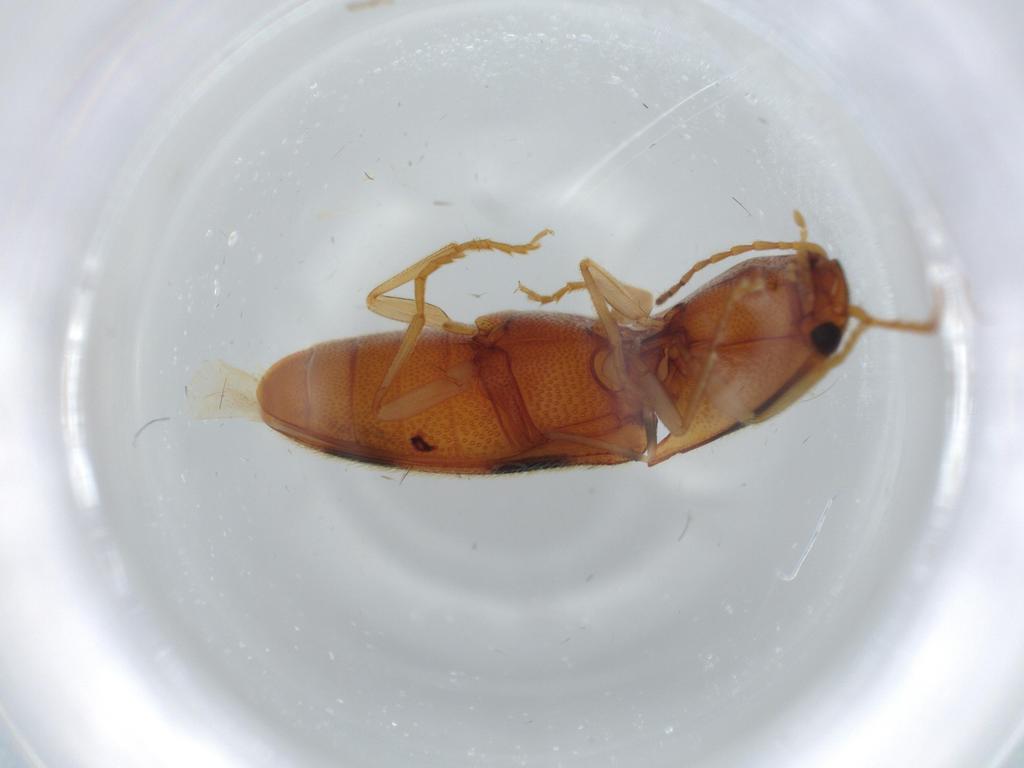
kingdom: Animalia
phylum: Arthropoda
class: Insecta
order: Coleoptera
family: Elateridae
